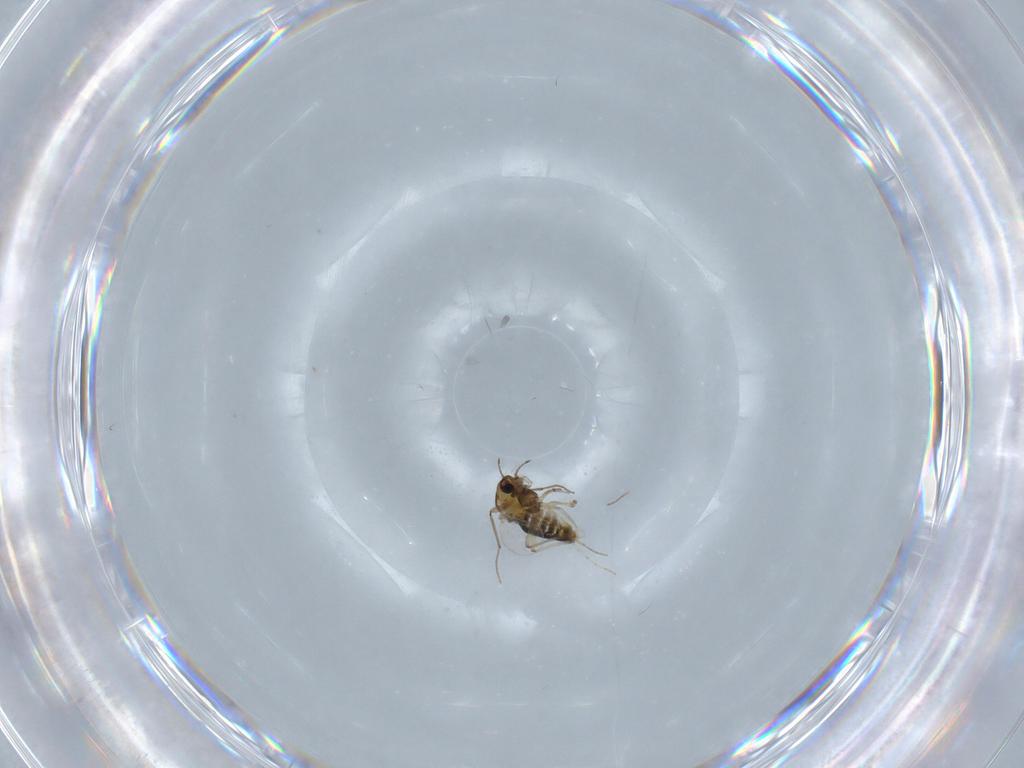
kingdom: Animalia
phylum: Arthropoda
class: Insecta
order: Diptera
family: Chironomidae
